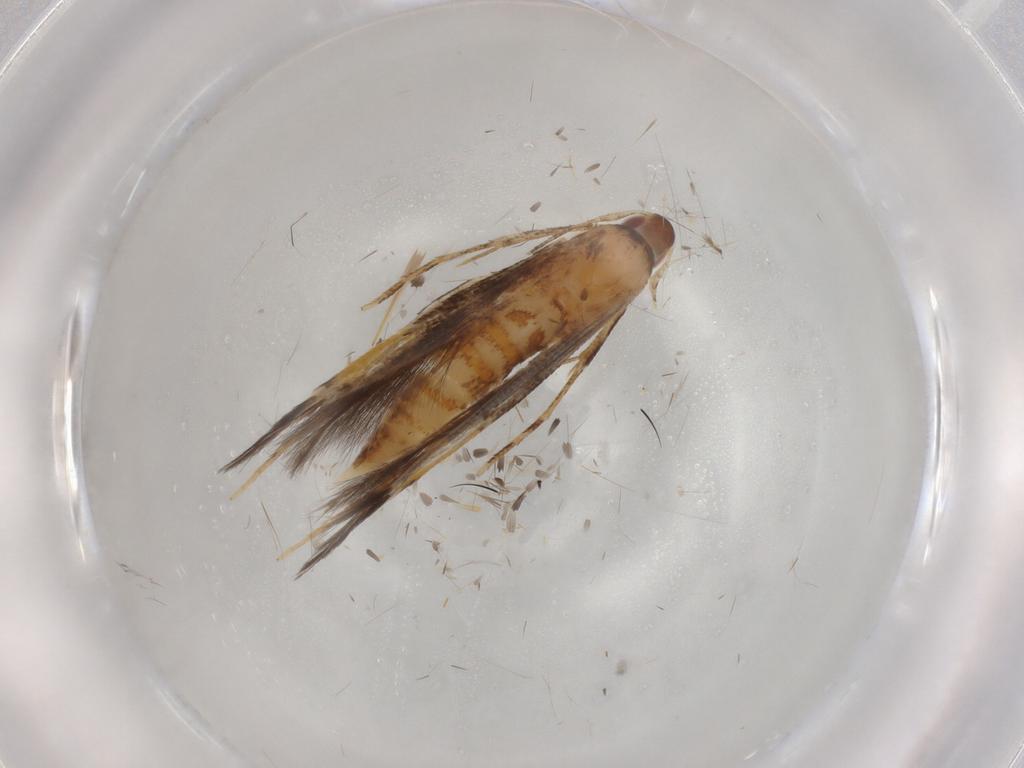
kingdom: Animalia
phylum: Arthropoda
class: Insecta
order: Lepidoptera
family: Cosmopterigidae
